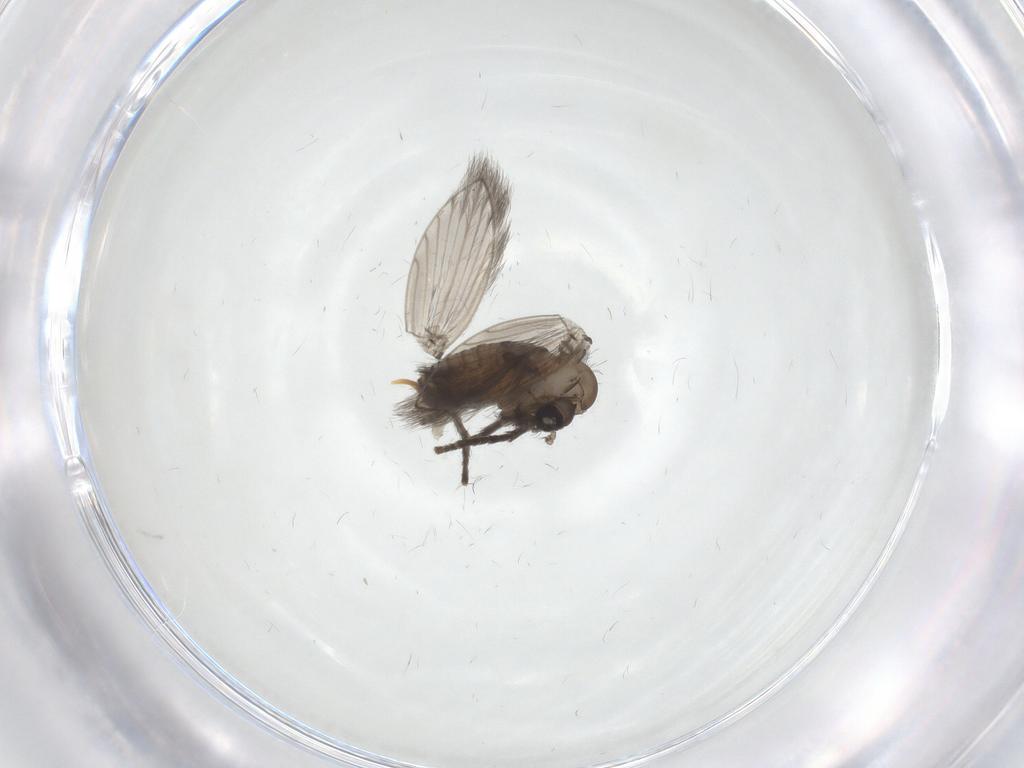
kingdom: Animalia
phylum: Arthropoda
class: Insecta
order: Diptera
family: Psychodidae
